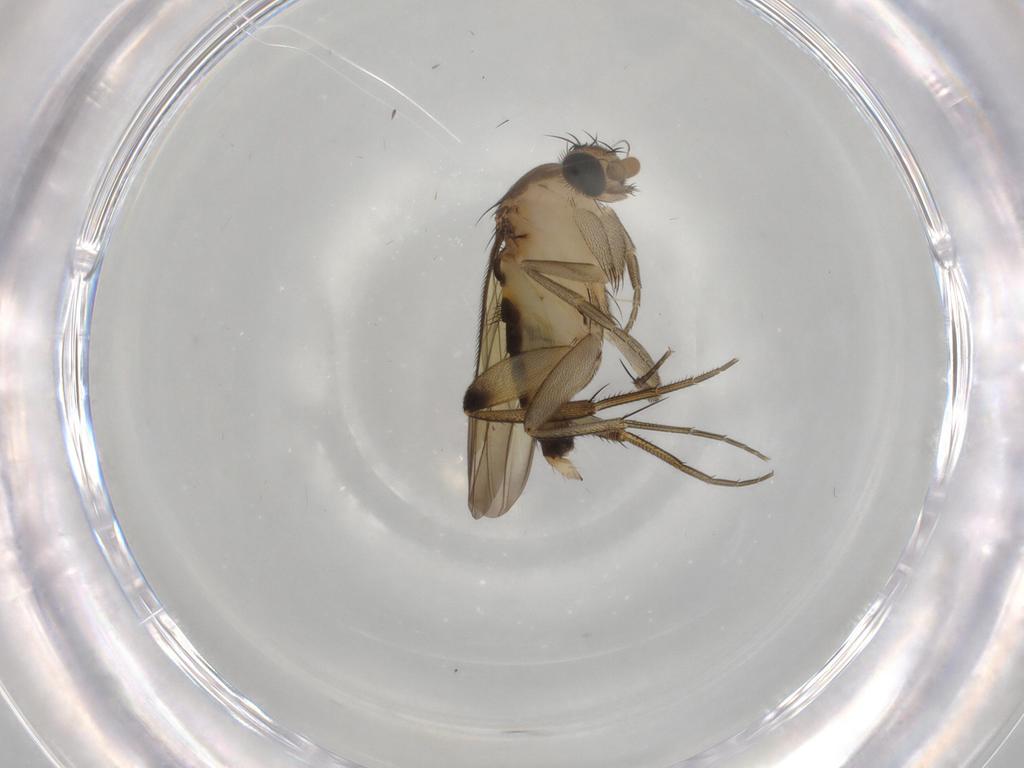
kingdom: Animalia
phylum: Arthropoda
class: Insecta
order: Diptera
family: Phoridae
